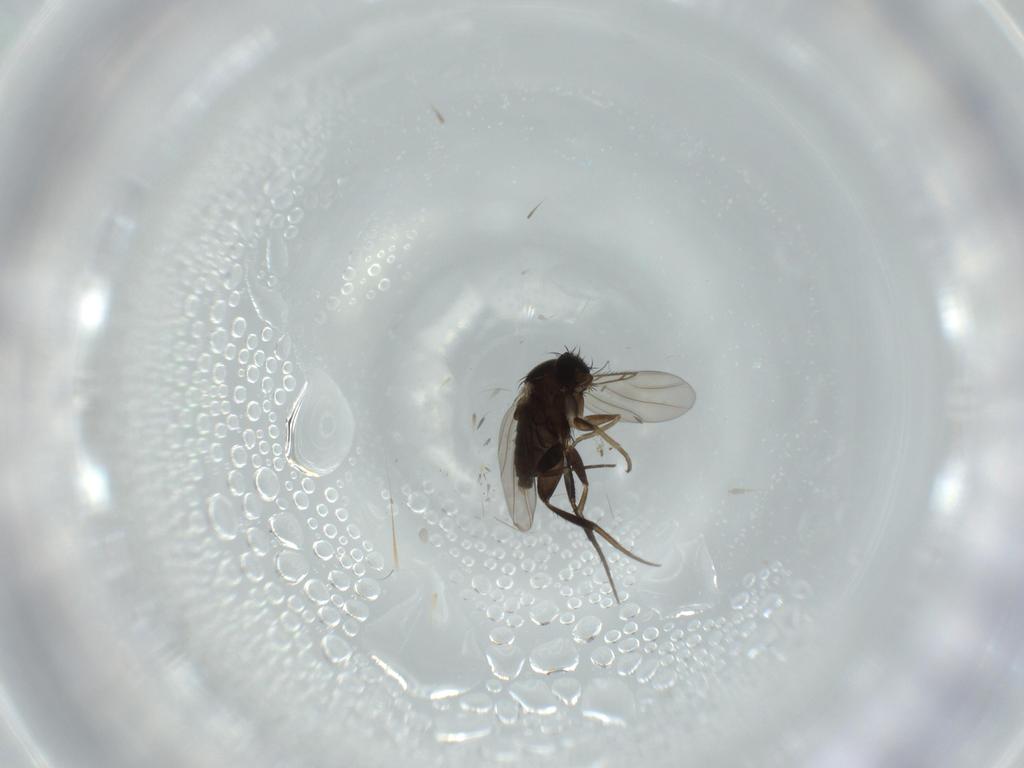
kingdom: Animalia
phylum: Arthropoda
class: Insecta
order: Diptera
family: Phoridae
